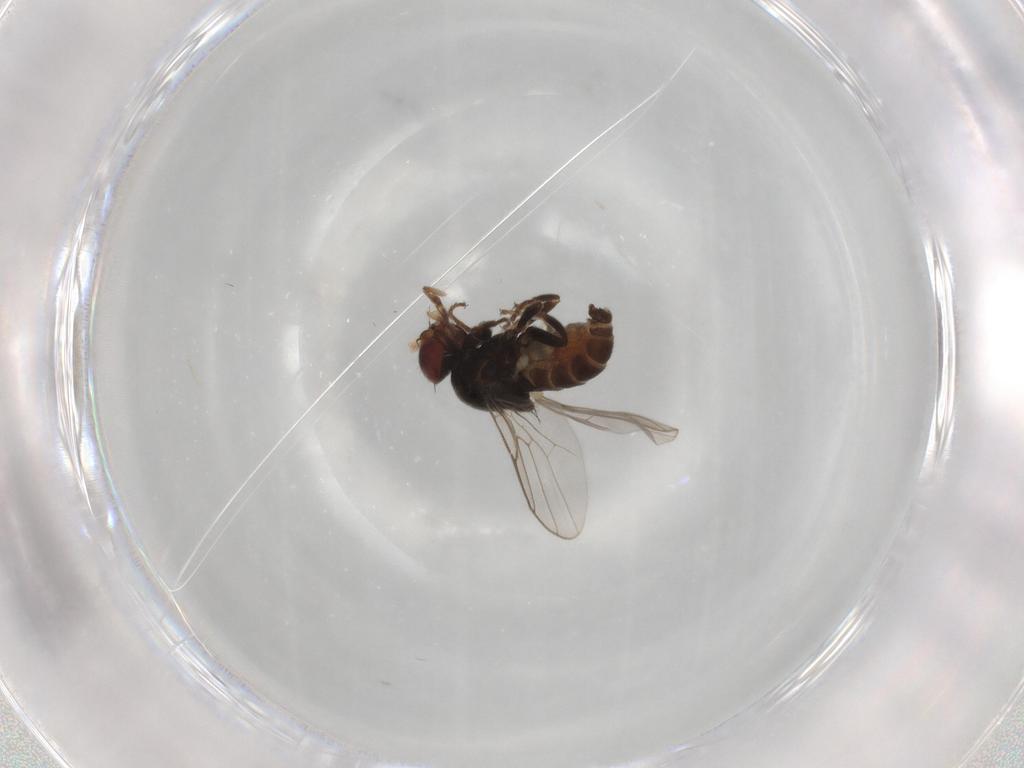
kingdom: Animalia
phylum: Arthropoda
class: Insecta
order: Diptera
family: Chloropidae
